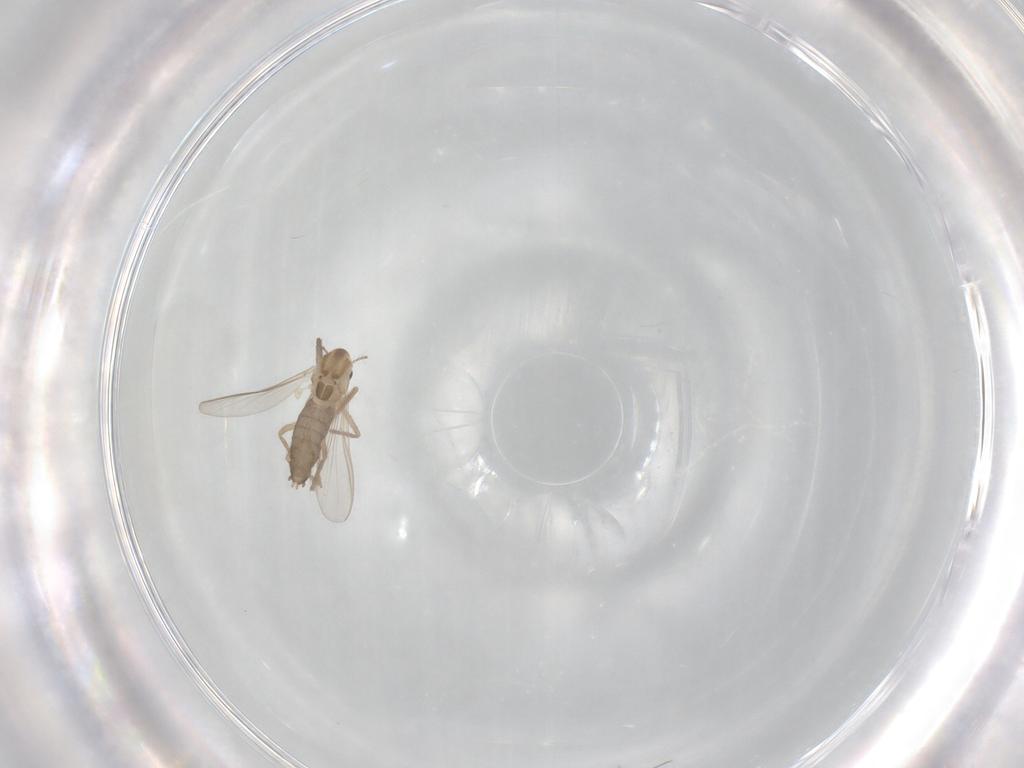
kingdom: Animalia
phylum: Arthropoda
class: Insecta
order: Diptera
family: Chironomidae
